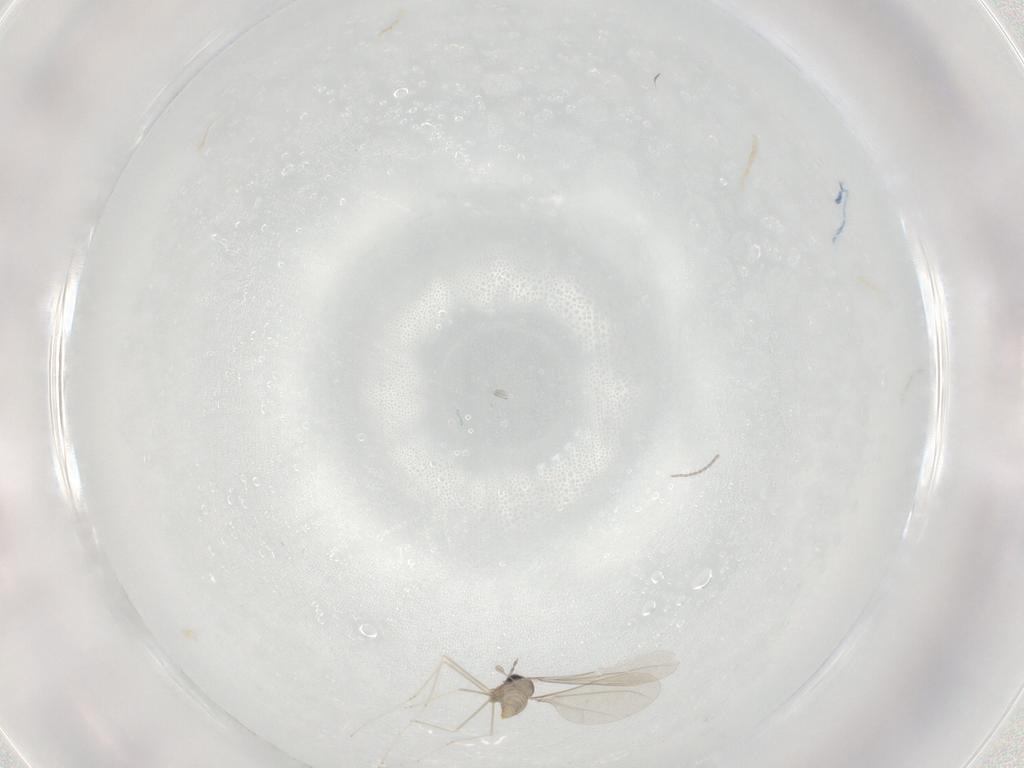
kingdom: Animalia
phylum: Arthropoda
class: Insecta
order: Diptera
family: Cecidomyiidae
